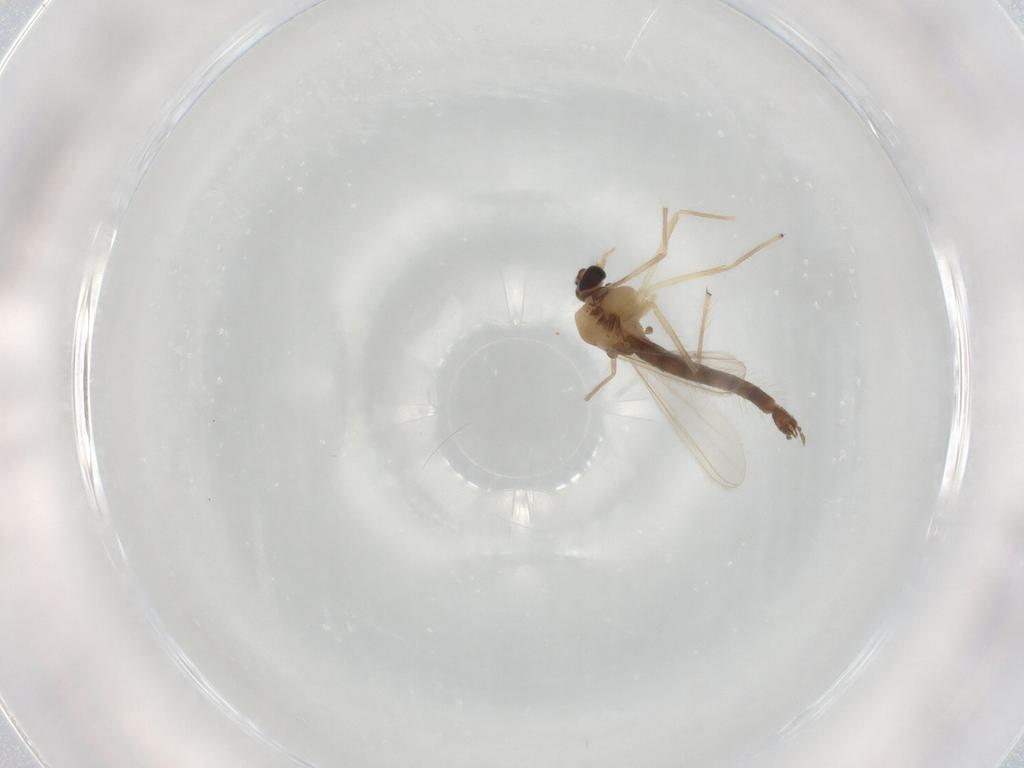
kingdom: Animalia
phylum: Arthropoda
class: Insecta
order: Diptera
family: Chironomidae
